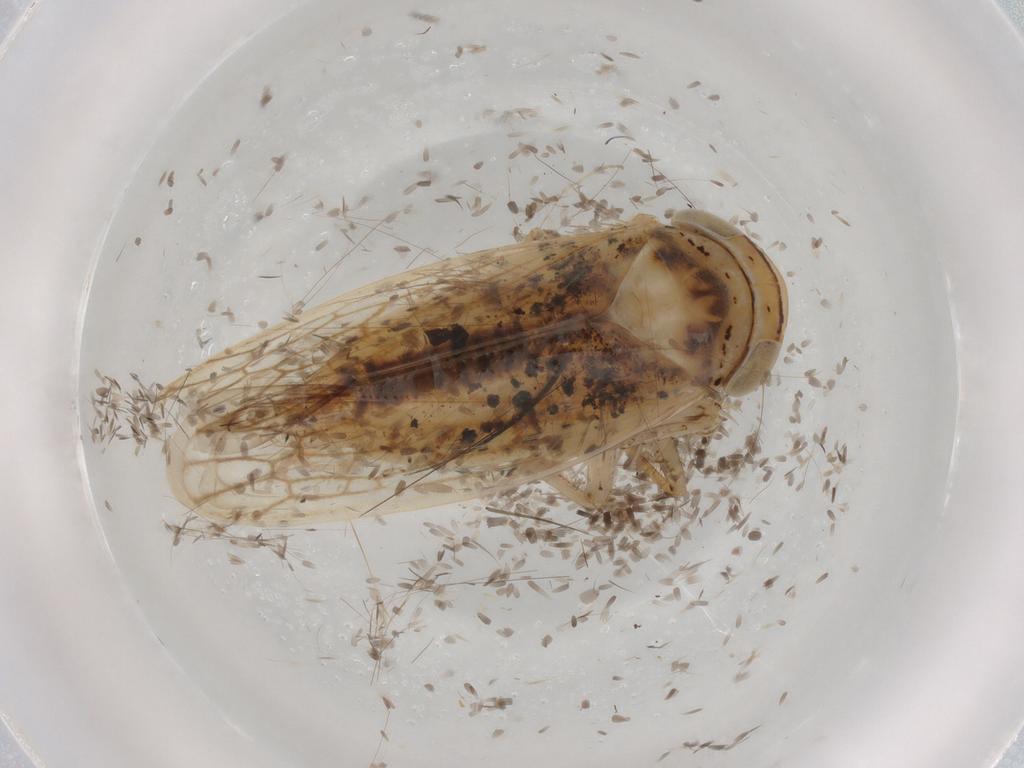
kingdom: Animalia
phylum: Arthropoda
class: Insecta
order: Hemiptera
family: Cicadellidae
